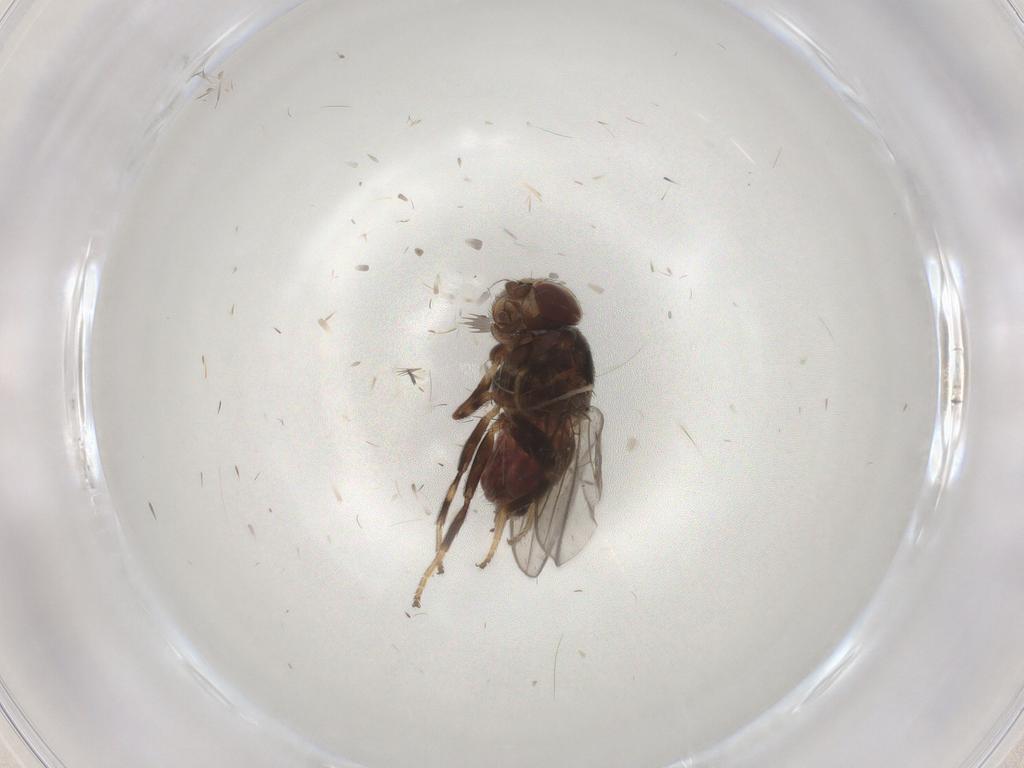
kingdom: Animalia
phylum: Arthropoda
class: Insecta
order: Diptera
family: Chloropidae
